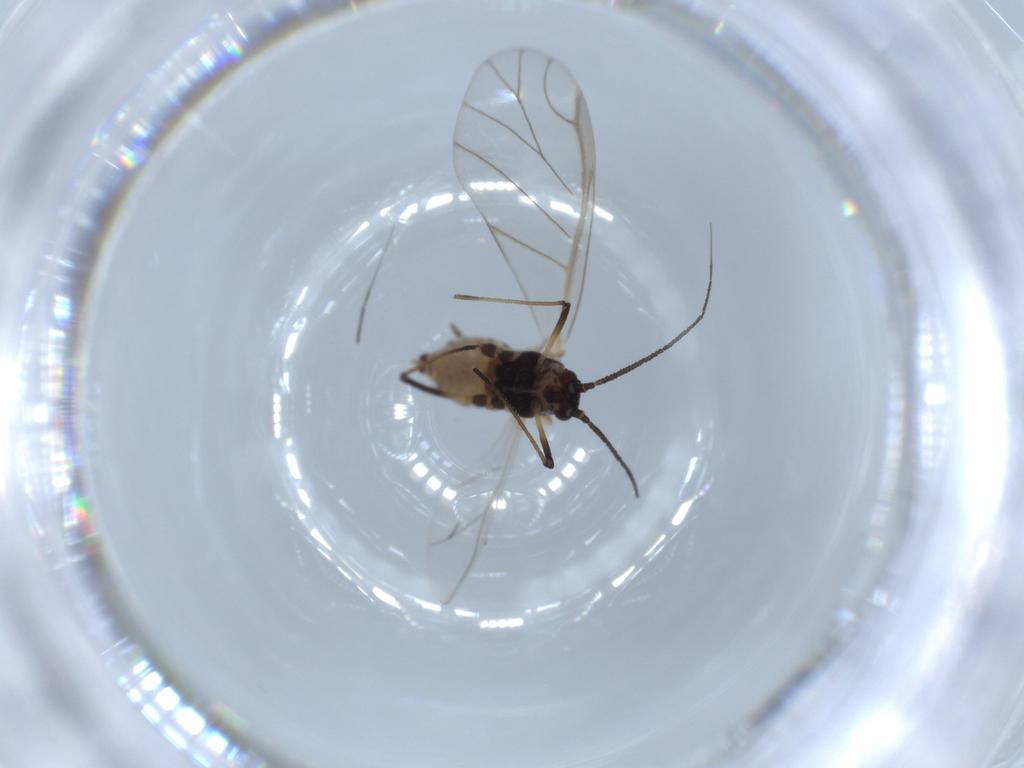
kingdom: Animalia
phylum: Arthropoda
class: Insecta
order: Hemiptera
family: Aphididae
